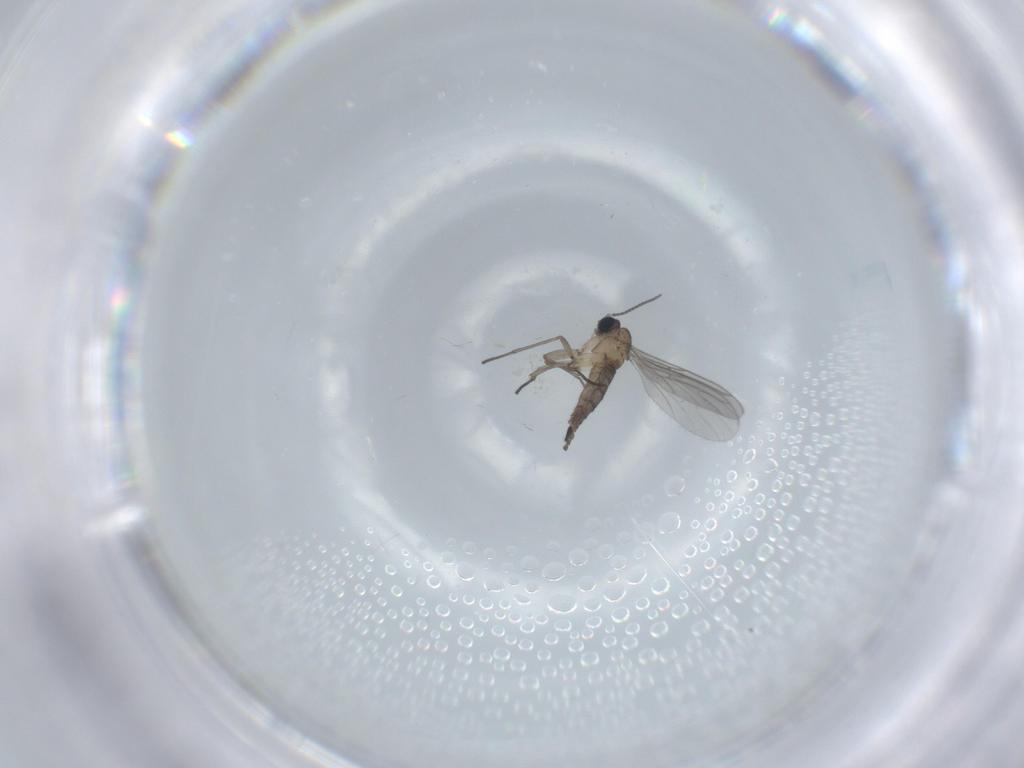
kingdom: Animalia
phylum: Arthropoda
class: Insecta
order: Diptera
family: Sciaridae
